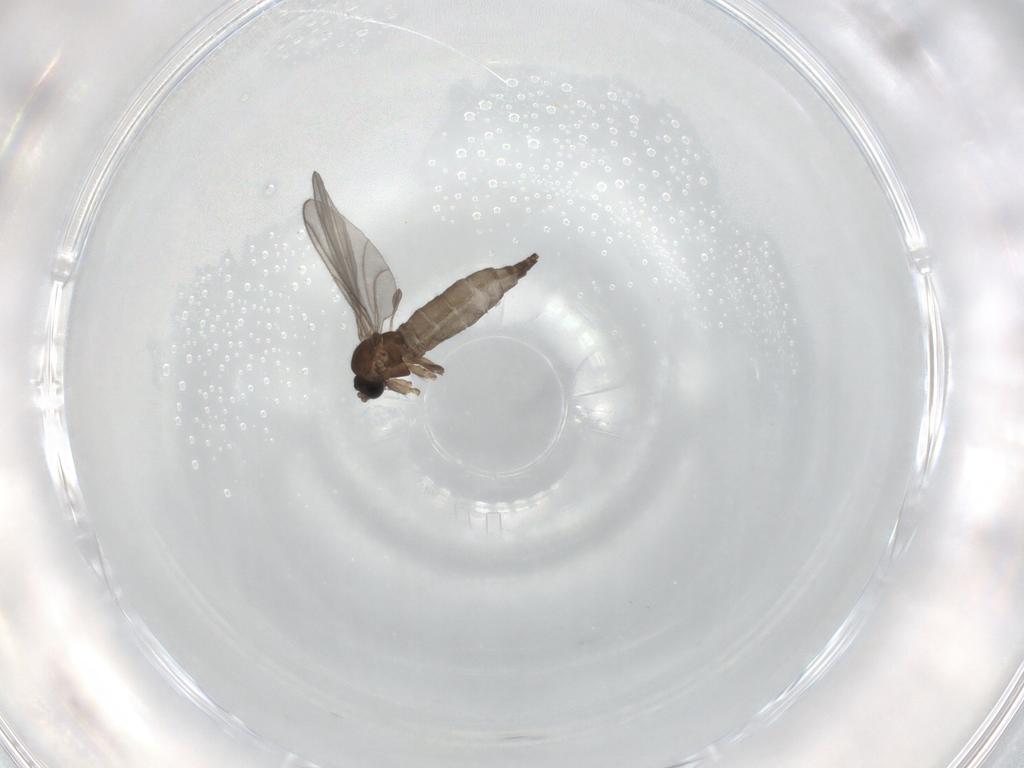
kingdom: Animalia
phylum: Arthropoda
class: Insecta
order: Diptera
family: Sciaridae
